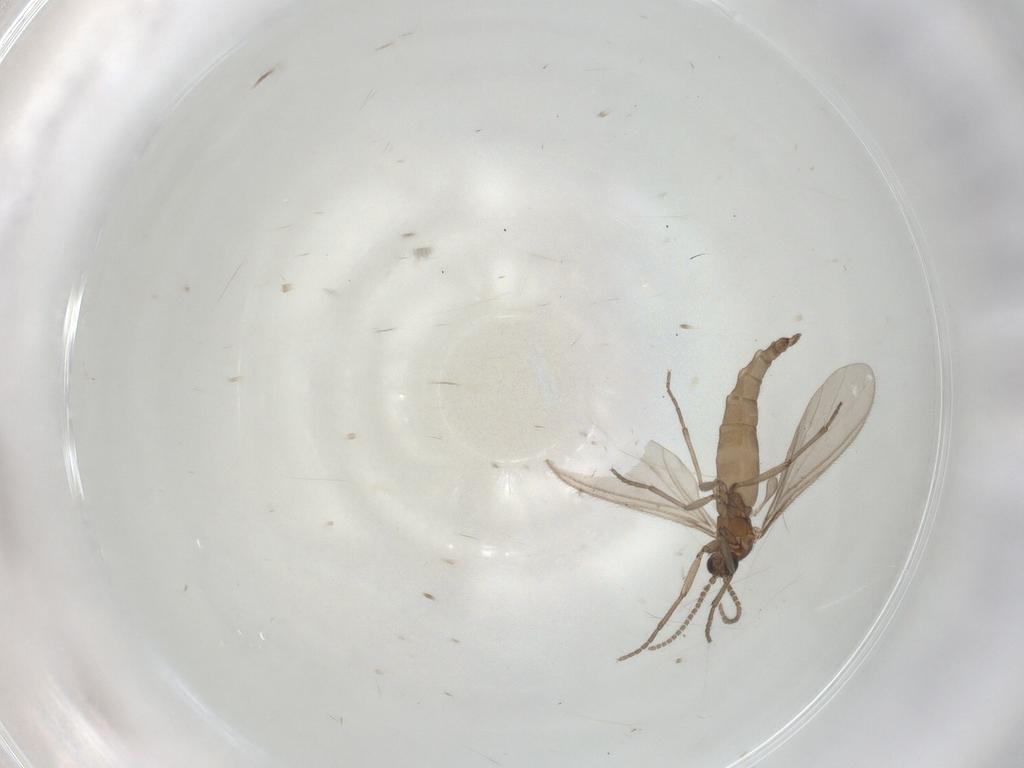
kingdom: Animalia
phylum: Arthropoda
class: Insecta
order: Diptera
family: Sciaridae
